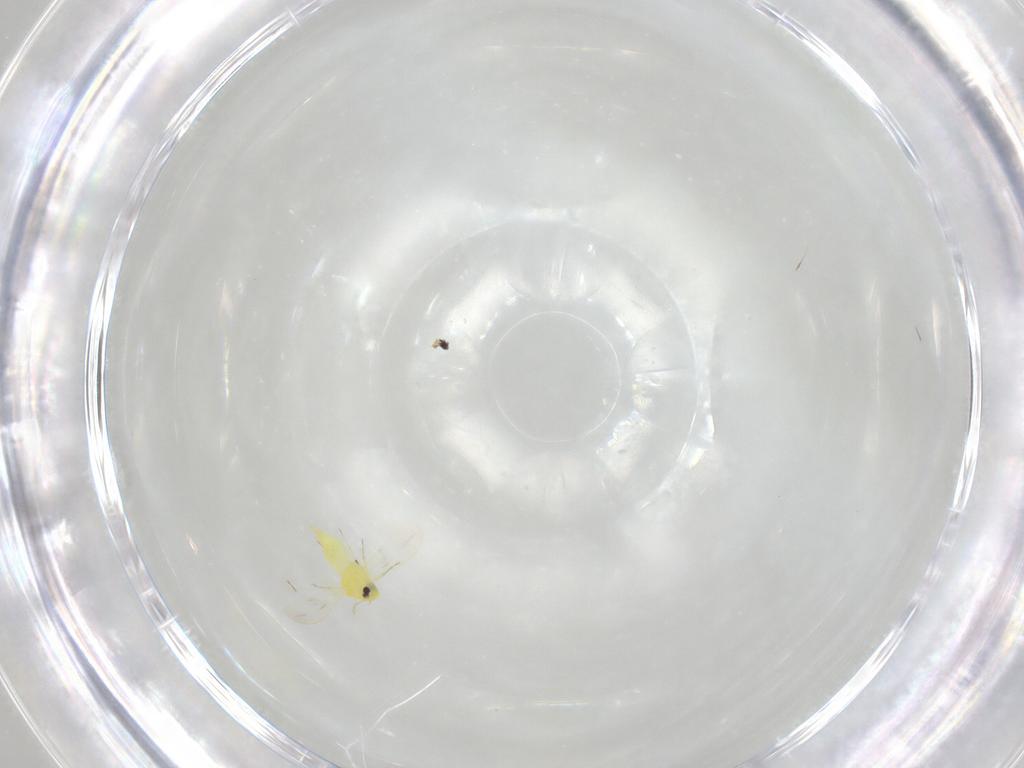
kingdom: Animalia
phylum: Arthropoda
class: Insecta
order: Hemiptera
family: Aleyrodidae
